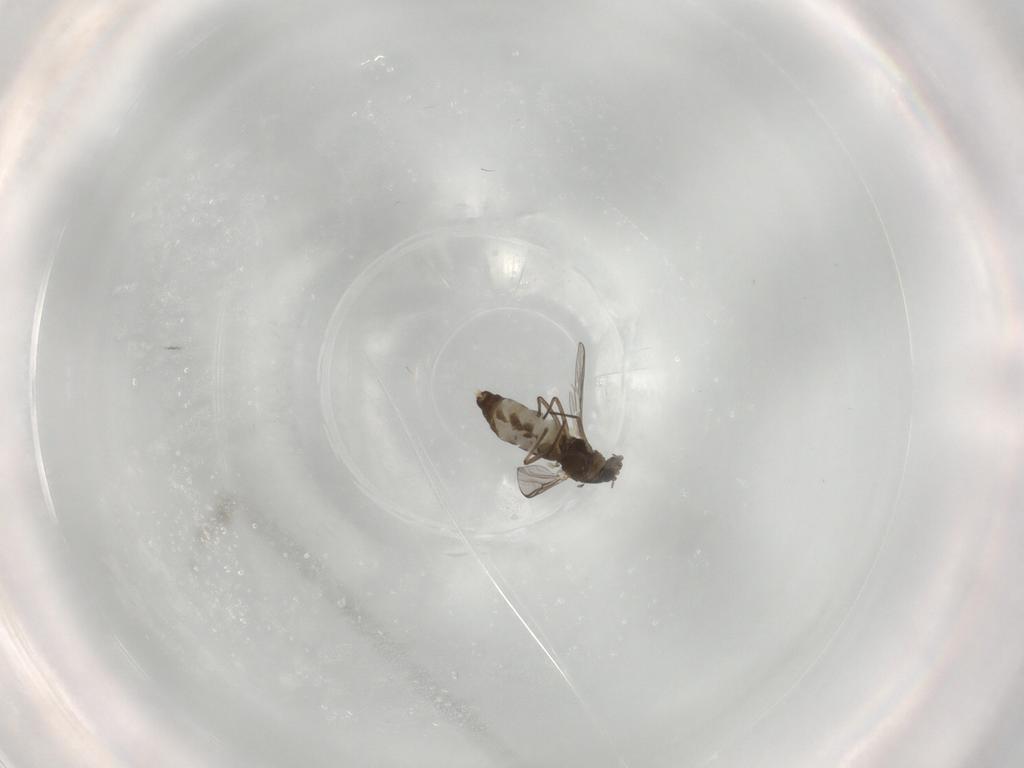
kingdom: Animalia
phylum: Arthropoda
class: Insecta
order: Diptera
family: Chironomidae
